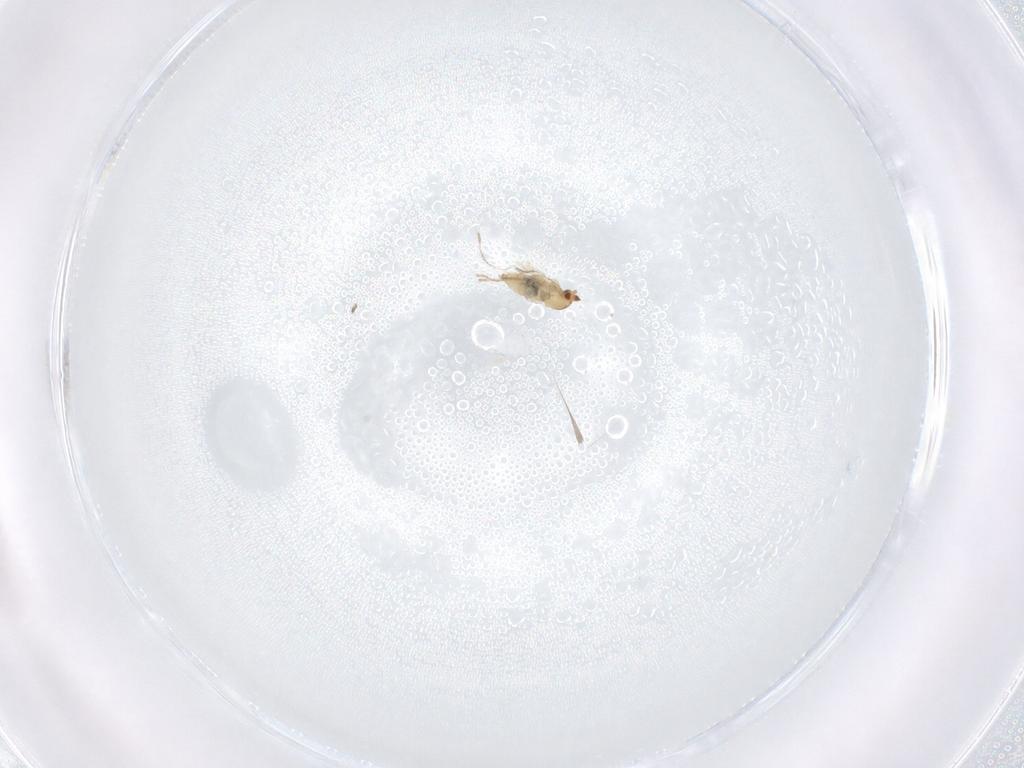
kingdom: Animalia
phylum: Arthropoda
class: Insecta
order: Diptera
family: Cecidomyiidae
